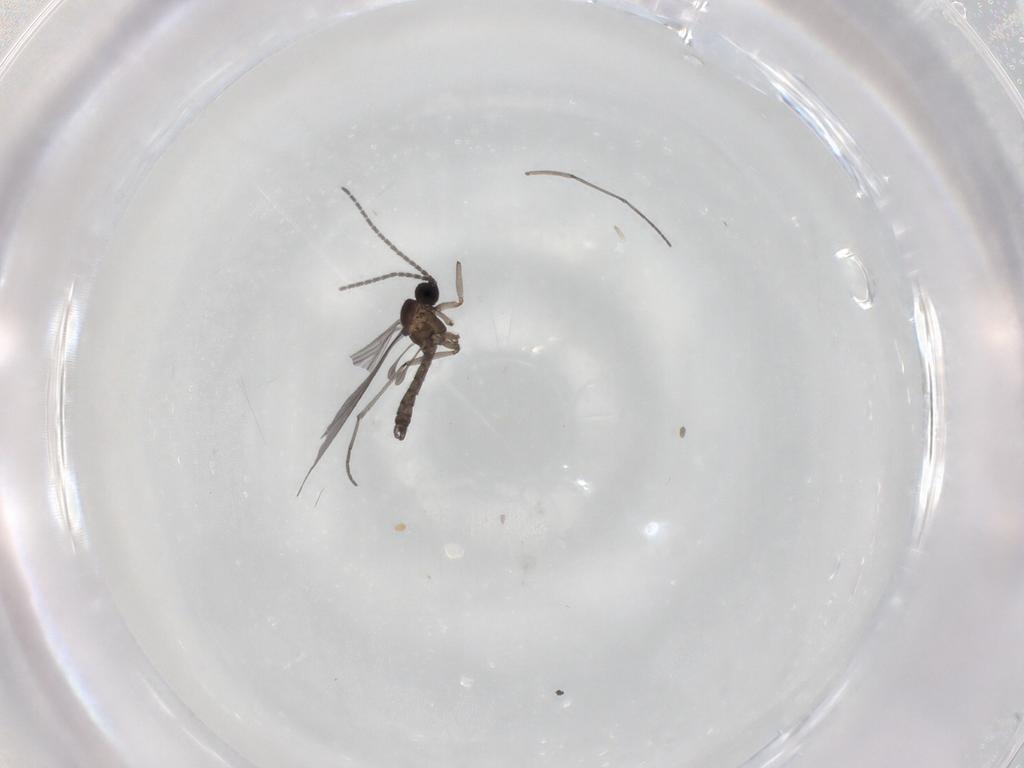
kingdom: Animalia
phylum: Arthropoda
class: Insecta
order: Diptera
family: Sciaridae
